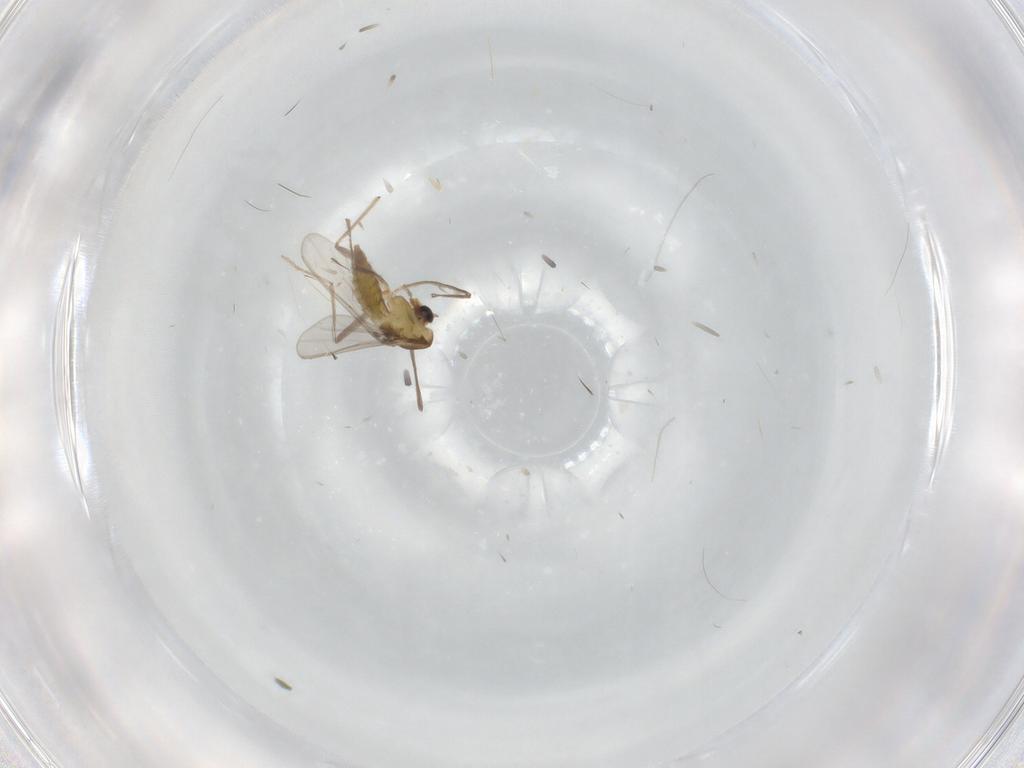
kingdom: Animalia
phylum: Arthropoda
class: Insecta
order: Diptera
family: Chironomidae
